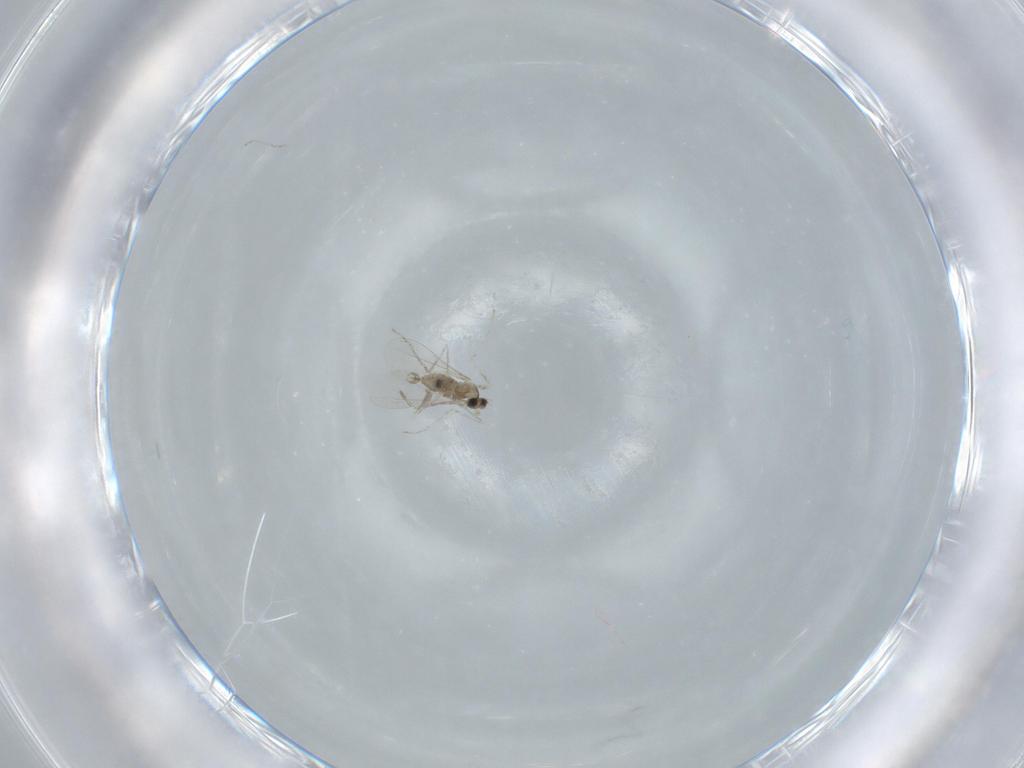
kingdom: Animalia
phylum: Arthropoda
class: Insecta
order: Diptera
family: Cecidomyiidae
